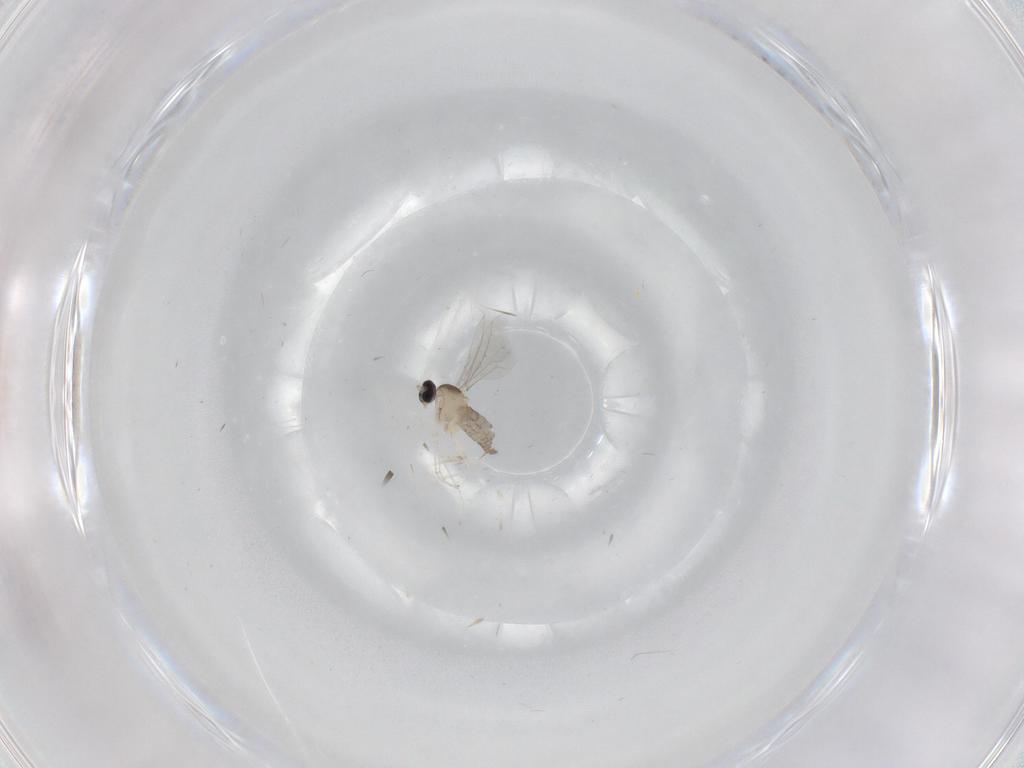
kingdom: Animalia
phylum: Arthropoda
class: Insecta
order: Diptera
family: Cecidomyiidae
